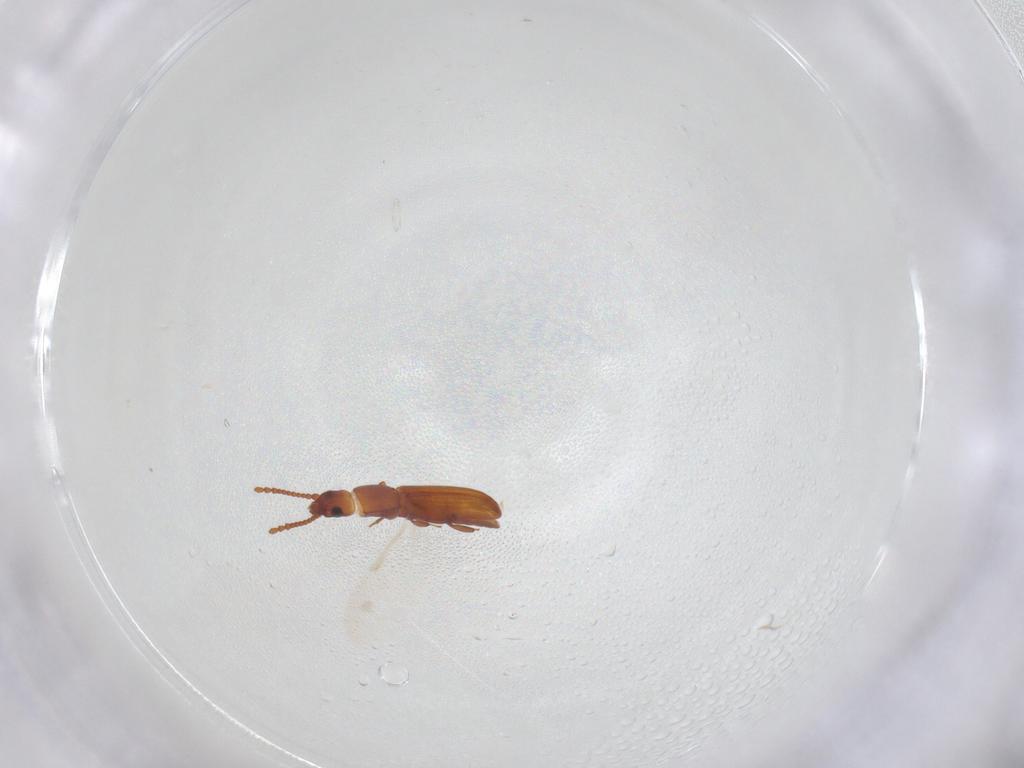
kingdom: Animalia
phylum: Arthropoda
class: Insecta
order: Coleoptera
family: Laemophloeidae
